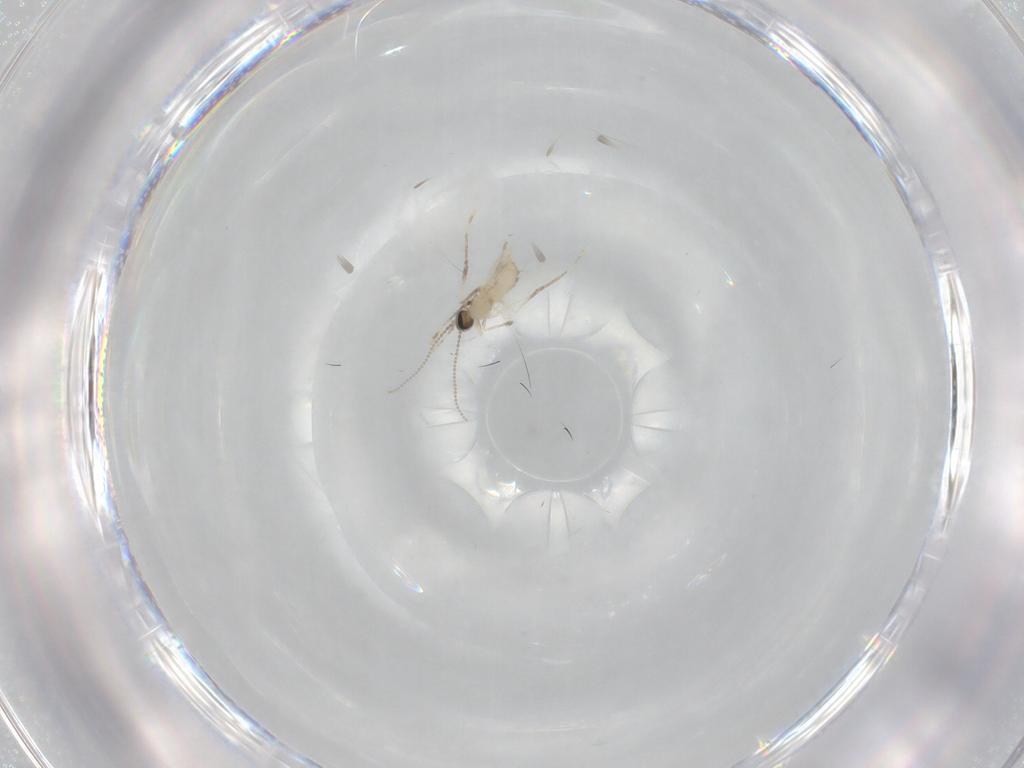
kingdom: Animalia
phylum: Arthropoda
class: Insecta
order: Diptera
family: Cecidomyiidae
